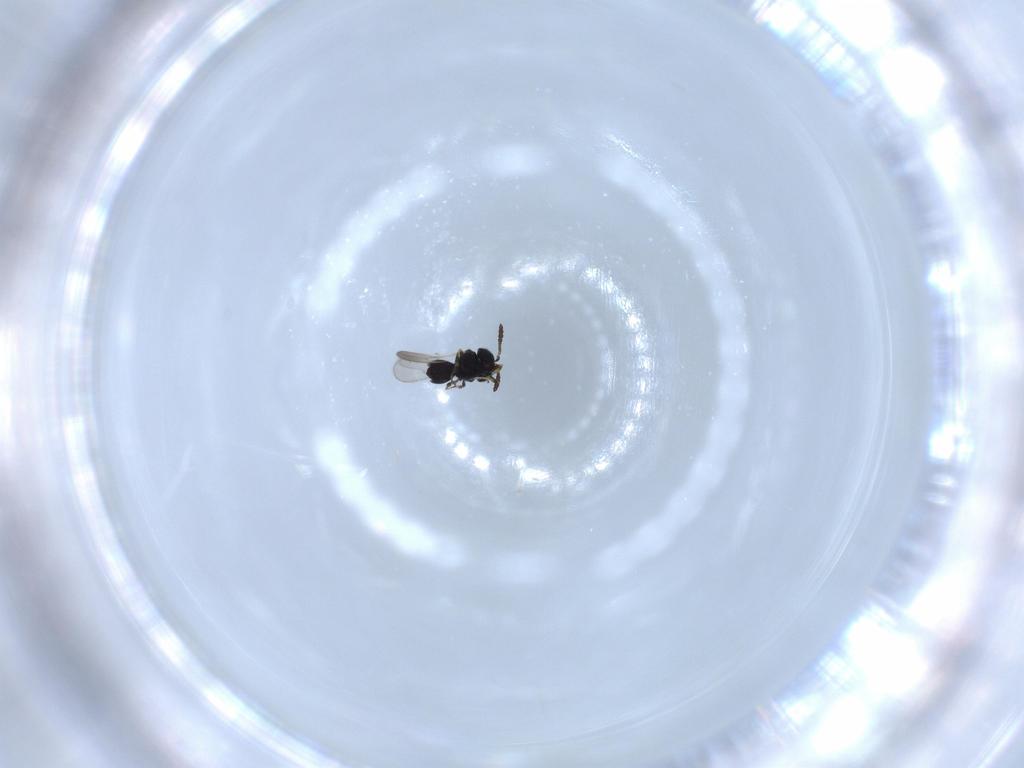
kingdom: Animalia
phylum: Arthropoda
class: Insecta
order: Hymenoptera
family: Scelionidae
